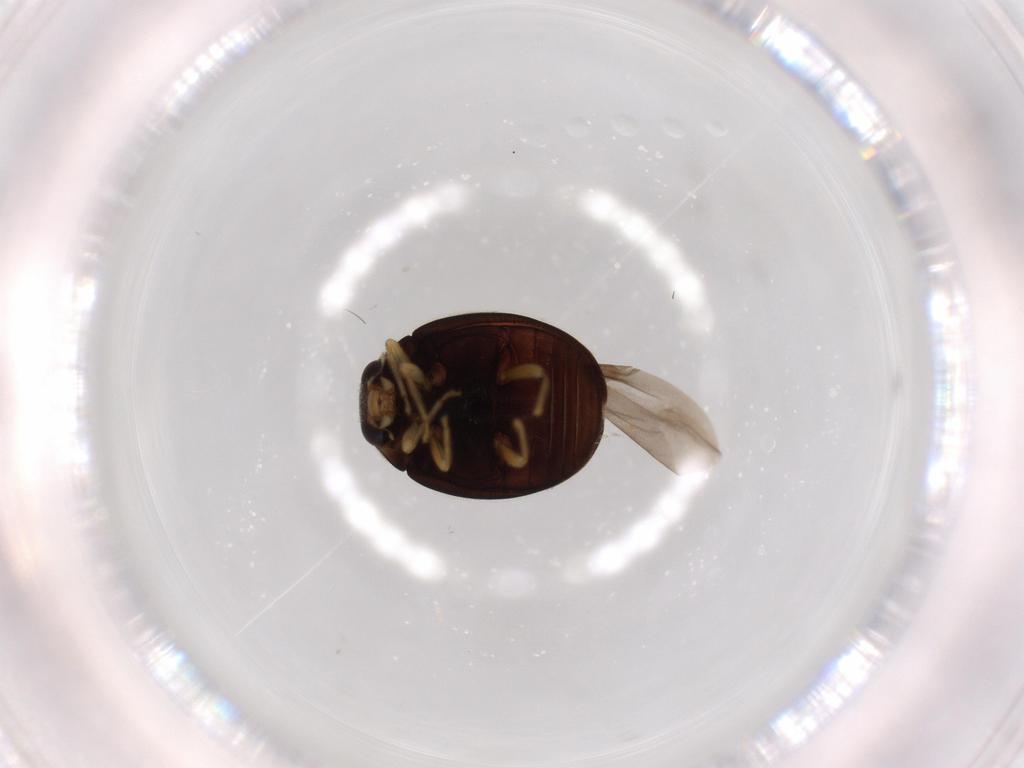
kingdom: Animalia
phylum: Arthropoda
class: Insecta
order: Coleoptera
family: Coccinellidae
